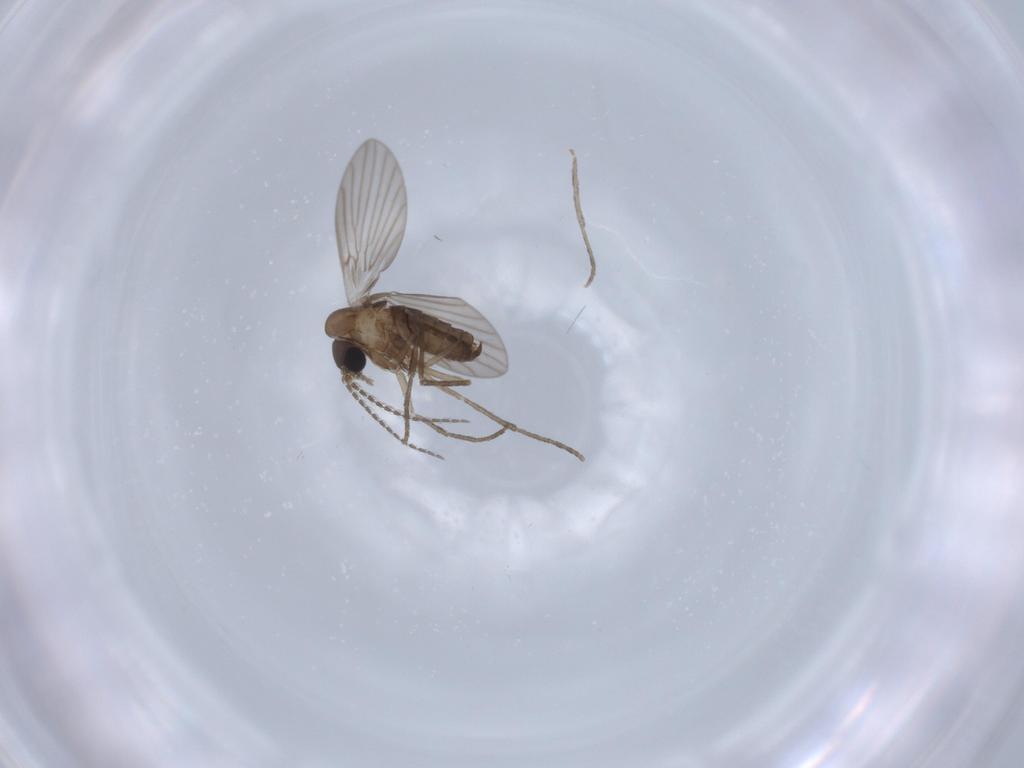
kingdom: Animalia
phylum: Arthropoda
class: Insecta
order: Diptera
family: Psychodidae
